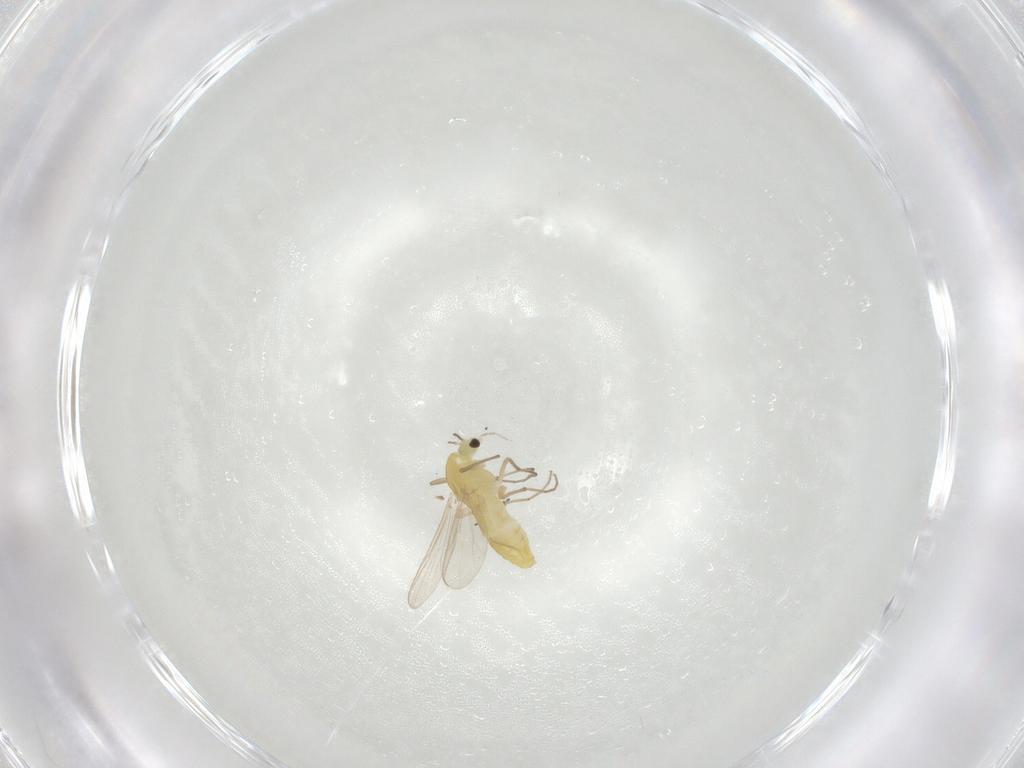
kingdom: Animalia
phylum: Arthropoda
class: Insecta
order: Diptera
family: Chironomidae
